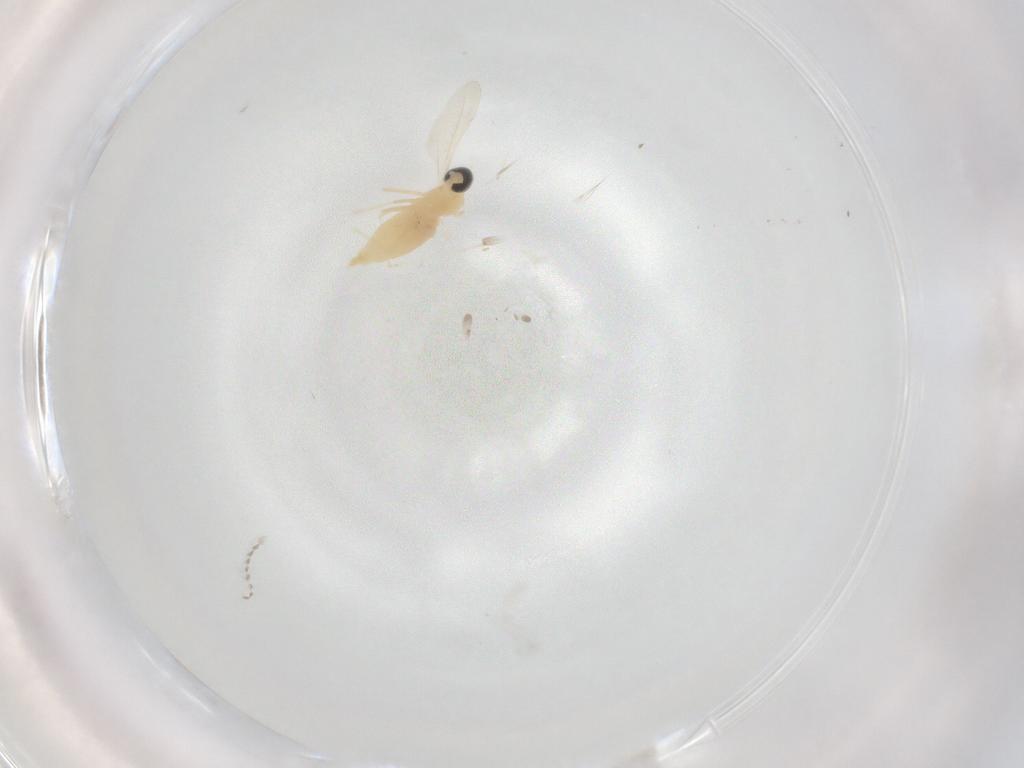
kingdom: Animalia
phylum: Arthropoda
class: Insecta
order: Diptera
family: Cecidomyiidae
